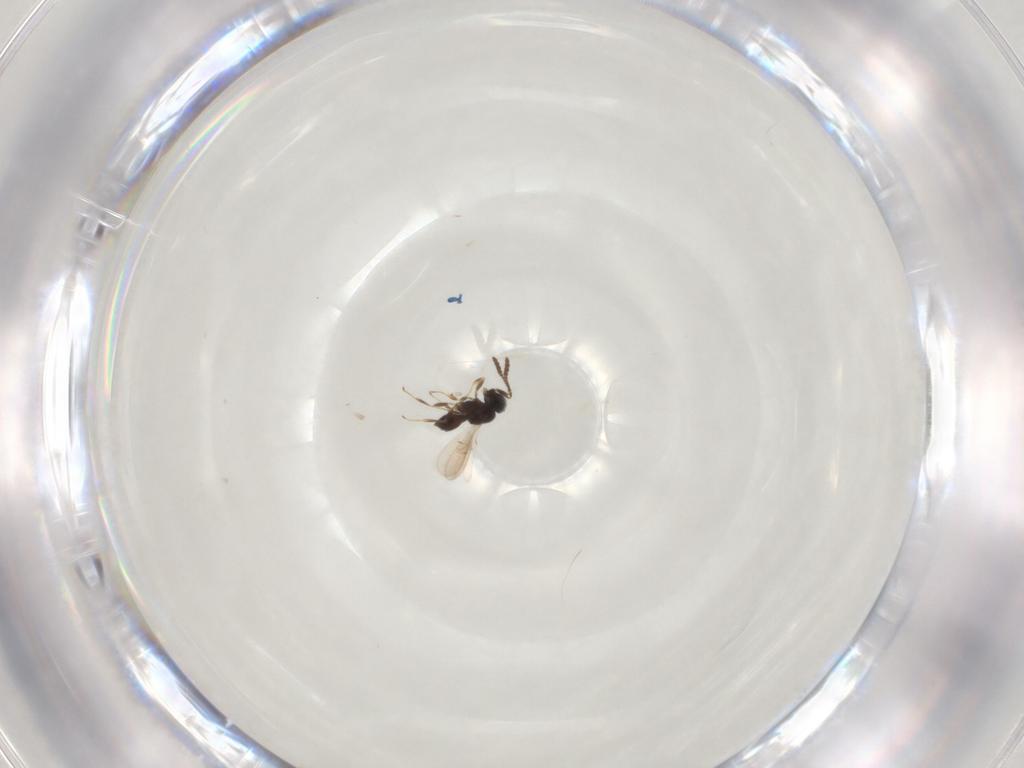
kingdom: Animalia
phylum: Arthropoda
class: Insecta
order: Hymenoptera
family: Scelionidae
